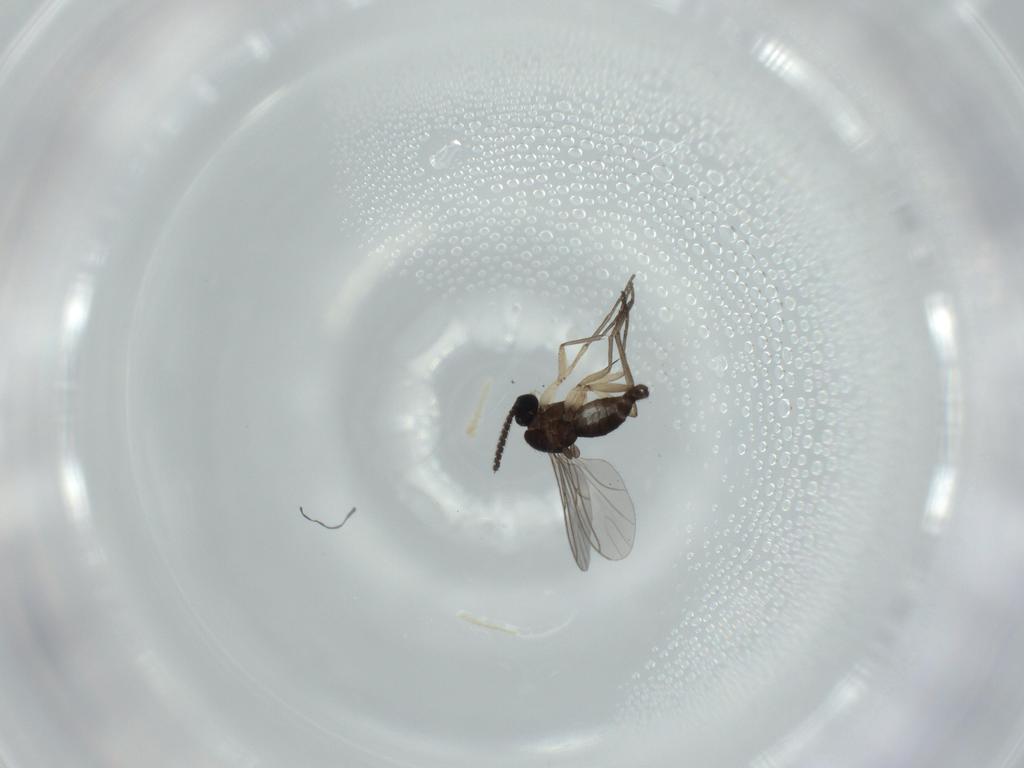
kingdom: Animalia
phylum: Arthropoda
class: Insecta
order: Diptera
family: Sciaridae
